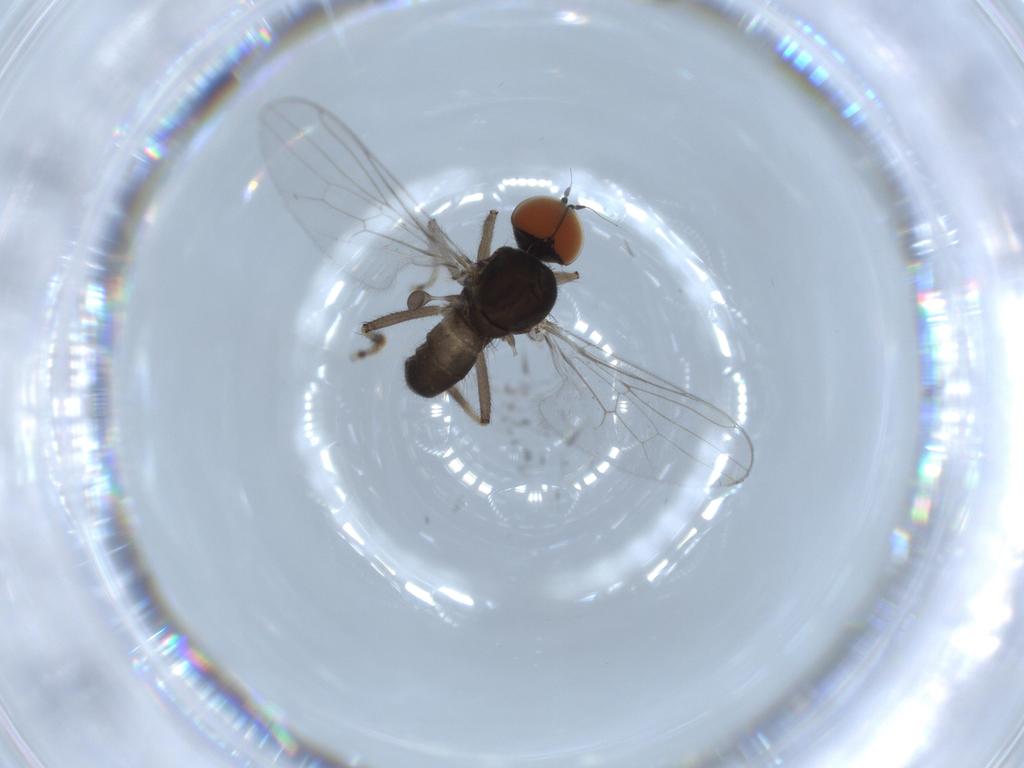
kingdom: Animalia
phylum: Arthropoda
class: Insecta
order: Diptera
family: Hybotidae
